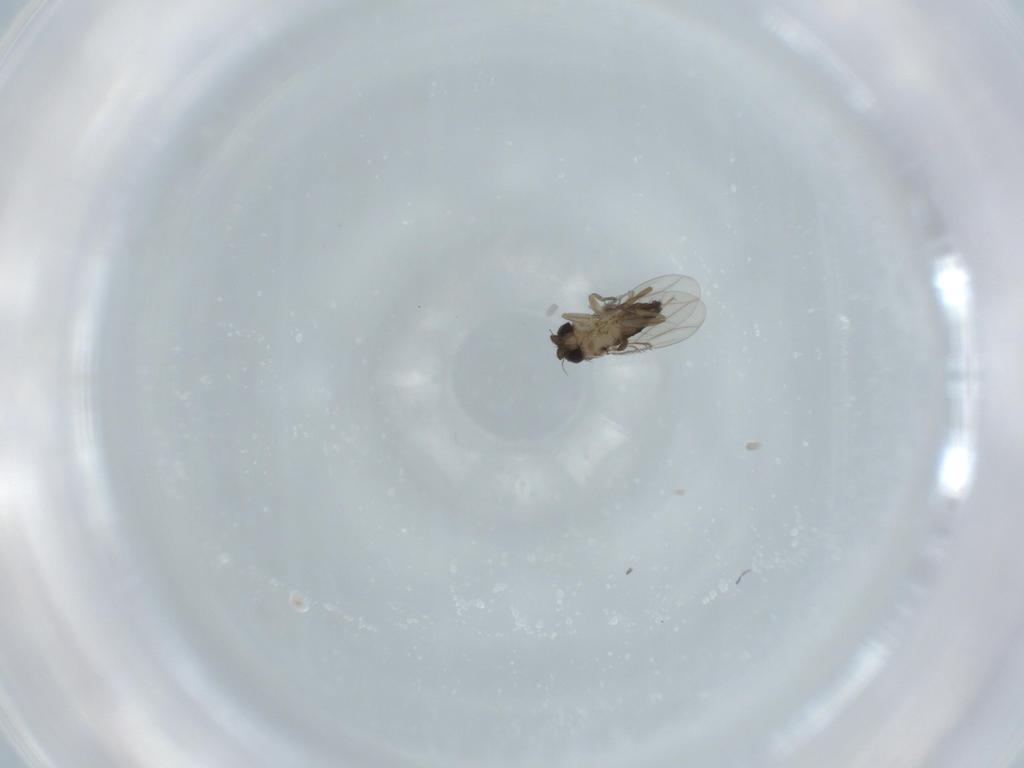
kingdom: Animalia
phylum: Arthropoda
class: Insecta
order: Diptera
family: Phoridae
